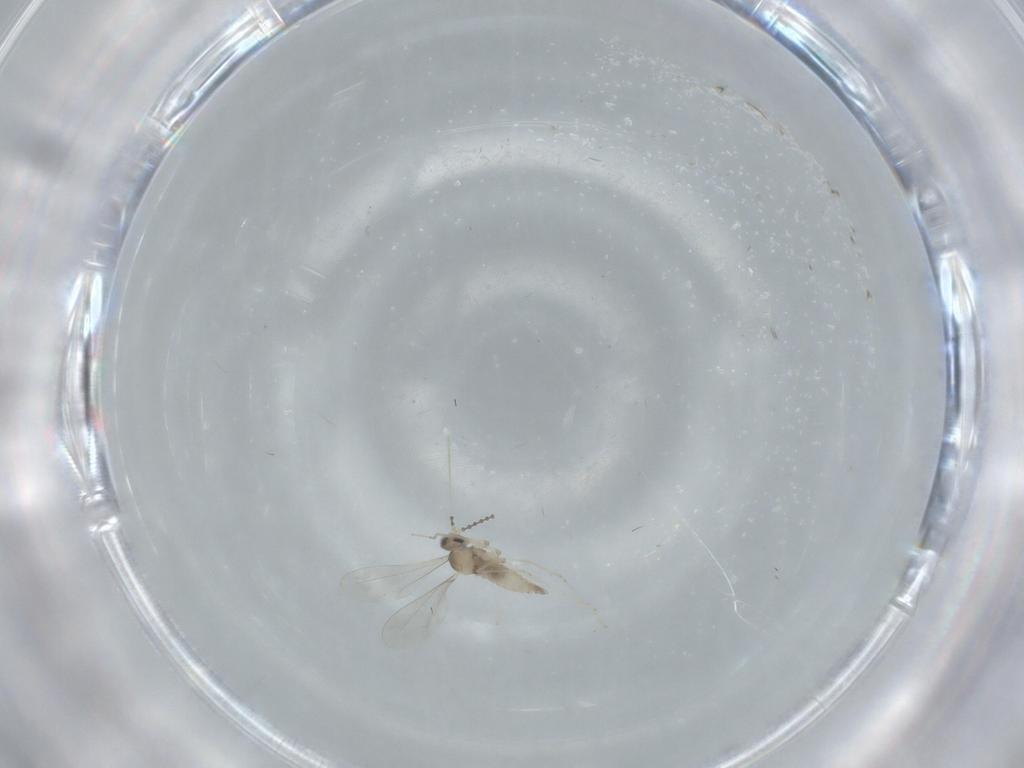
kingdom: Animalia
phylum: Arthropoda
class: Insecta
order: Diptera
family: Cecidomyiidae
